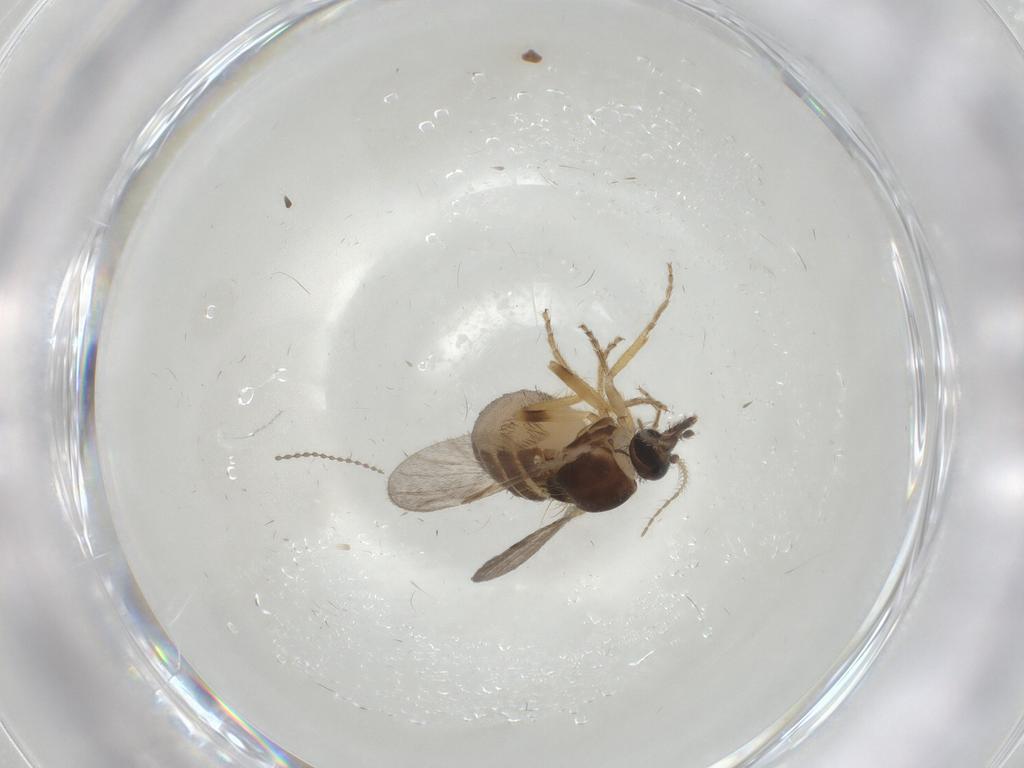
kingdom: Animalia
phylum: Arthropoda
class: Insecta
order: Diptera
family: Ceratopogonidae
